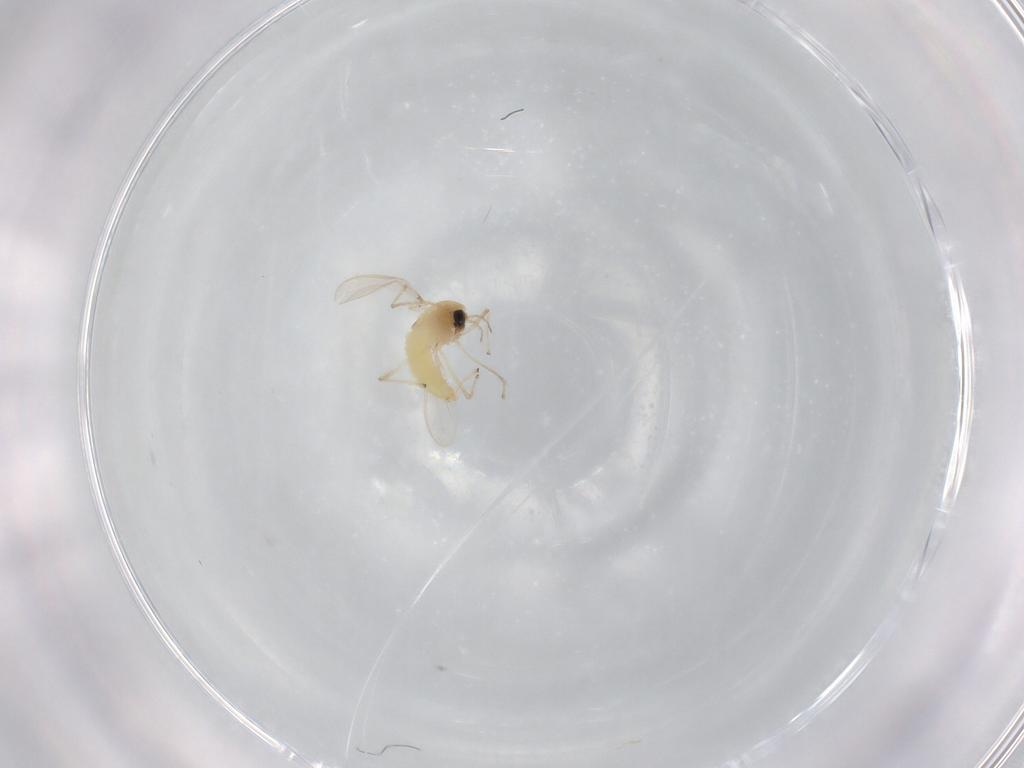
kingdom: Animalia
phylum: Arthropoda
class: Insecta
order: Diptera
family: Chironomidae
